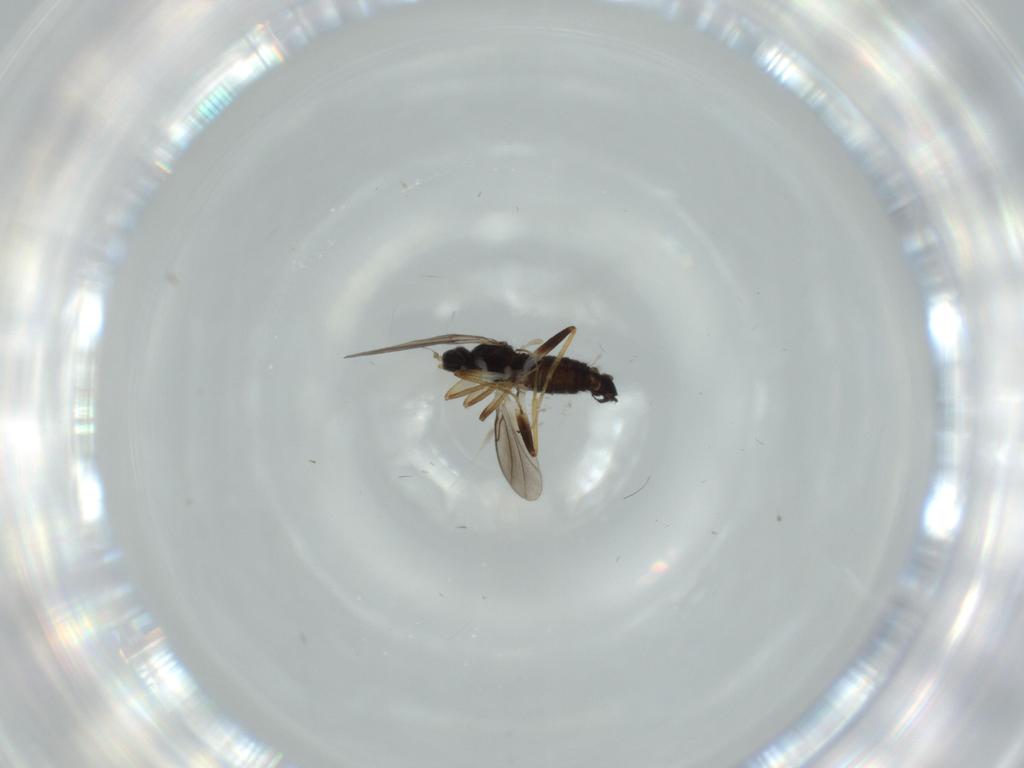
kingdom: Animalia
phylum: Arthropoda
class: Insecta
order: Diptera
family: Hybotidae
